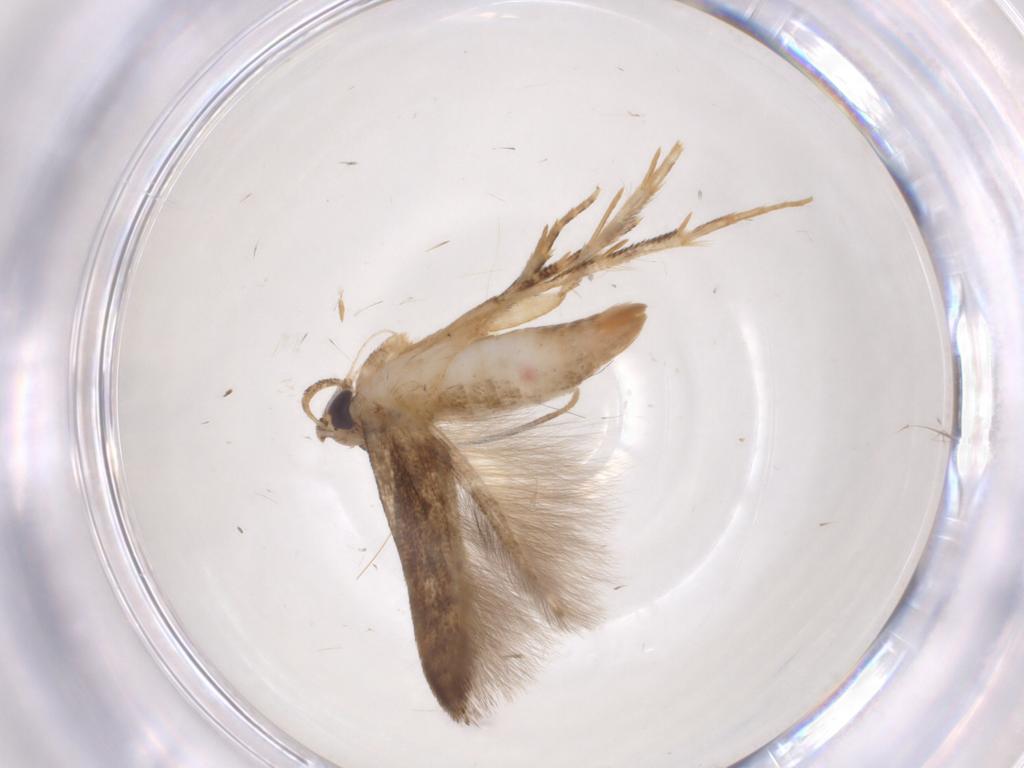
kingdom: Animalia
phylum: Arthropoda
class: Insecta
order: Lepidoptera
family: Cosmopterigidae
